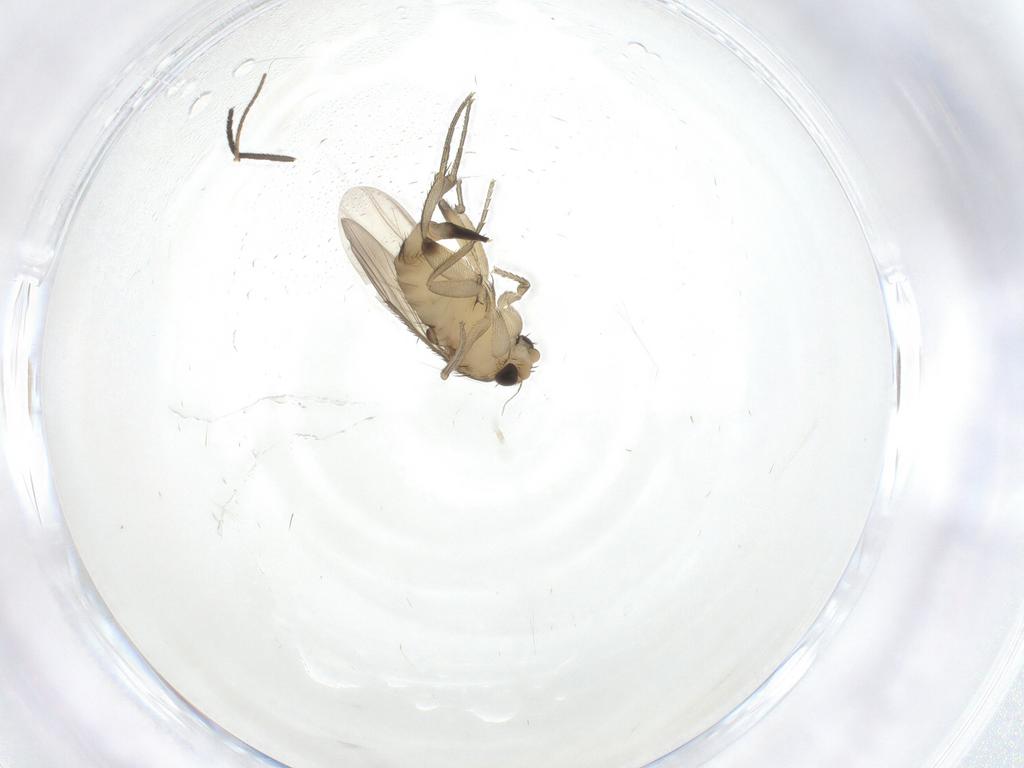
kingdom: Animalia
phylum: Arthropoda
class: Insecta
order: Diptera
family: Sciaridae
